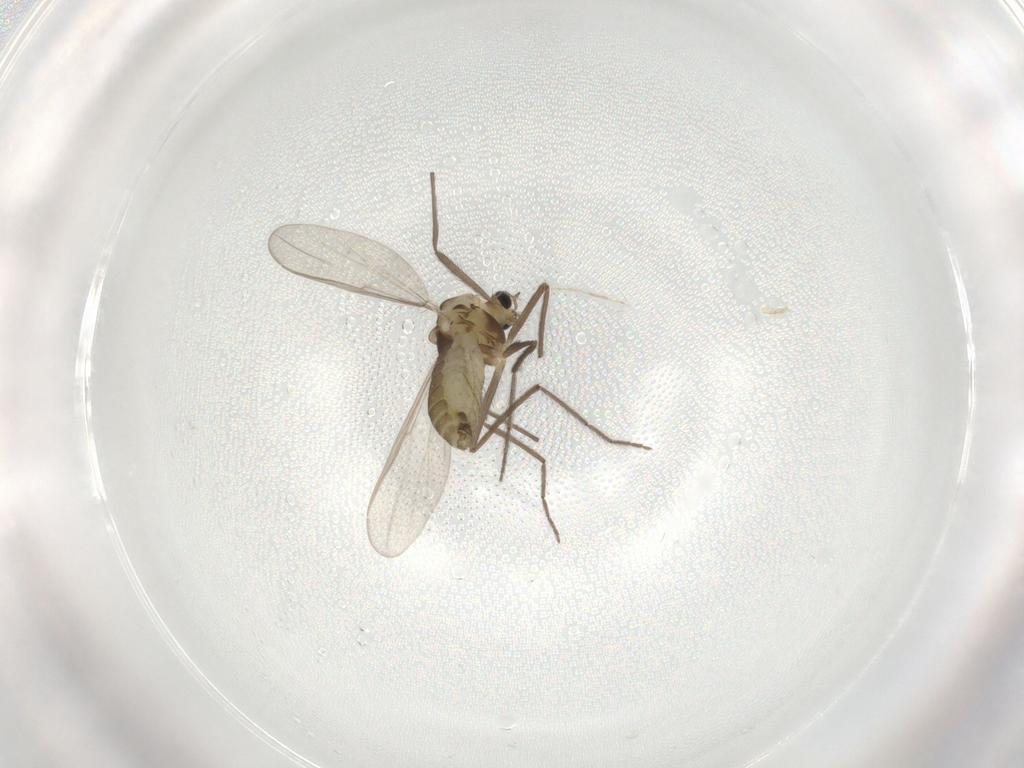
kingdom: Animalia
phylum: Arthropoda
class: Insecta
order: Diptera
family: Chironomidae
